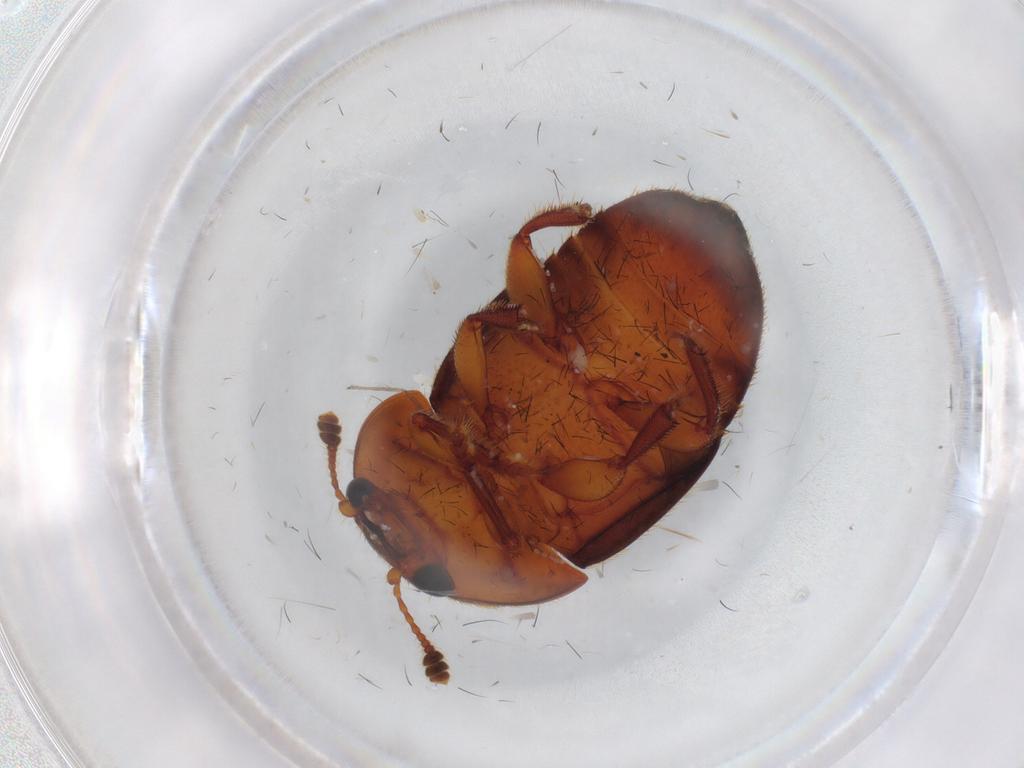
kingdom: Animalia
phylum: Arthropoda
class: Insecta
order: Coleoptera
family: Nitidulidae
